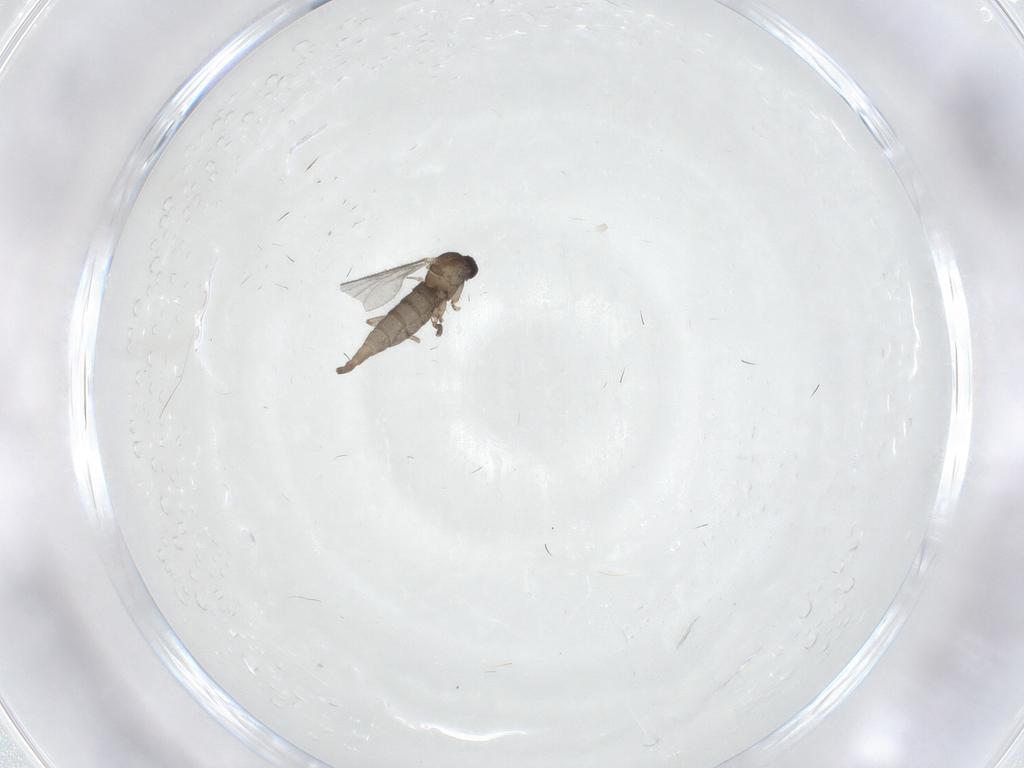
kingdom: Animalia
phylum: Arthropoda
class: Insecta
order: Diptera
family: Sciaridae
